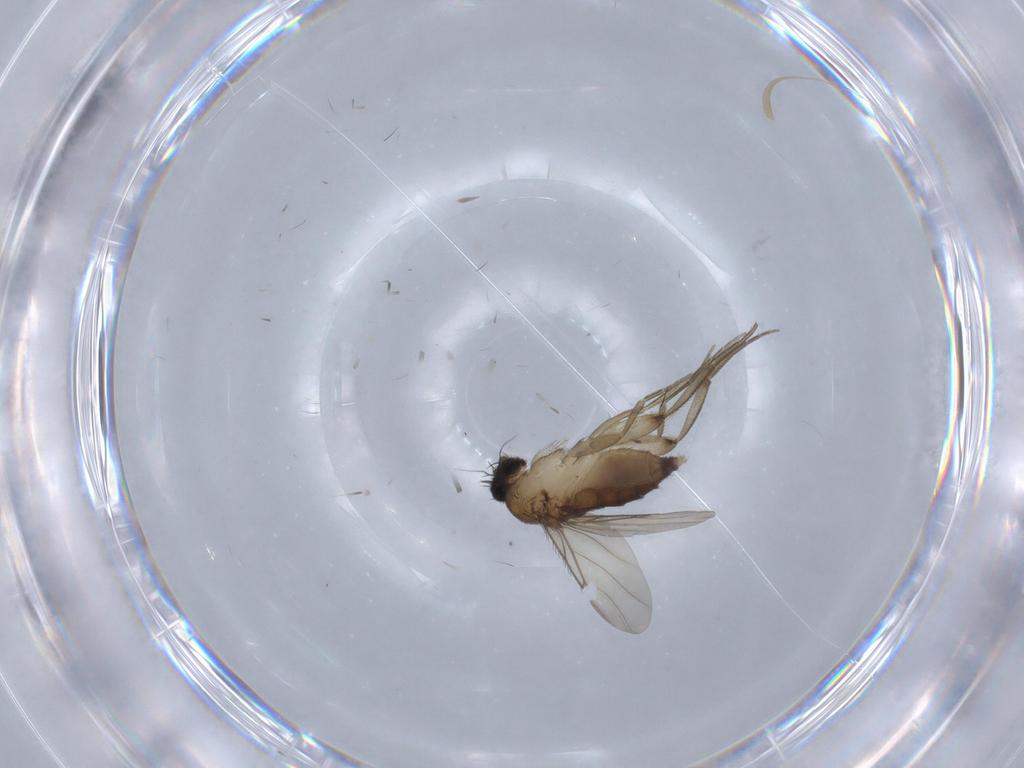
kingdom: Animalia
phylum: Arthropoda
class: Insecta
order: Diptera
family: Phoridae
